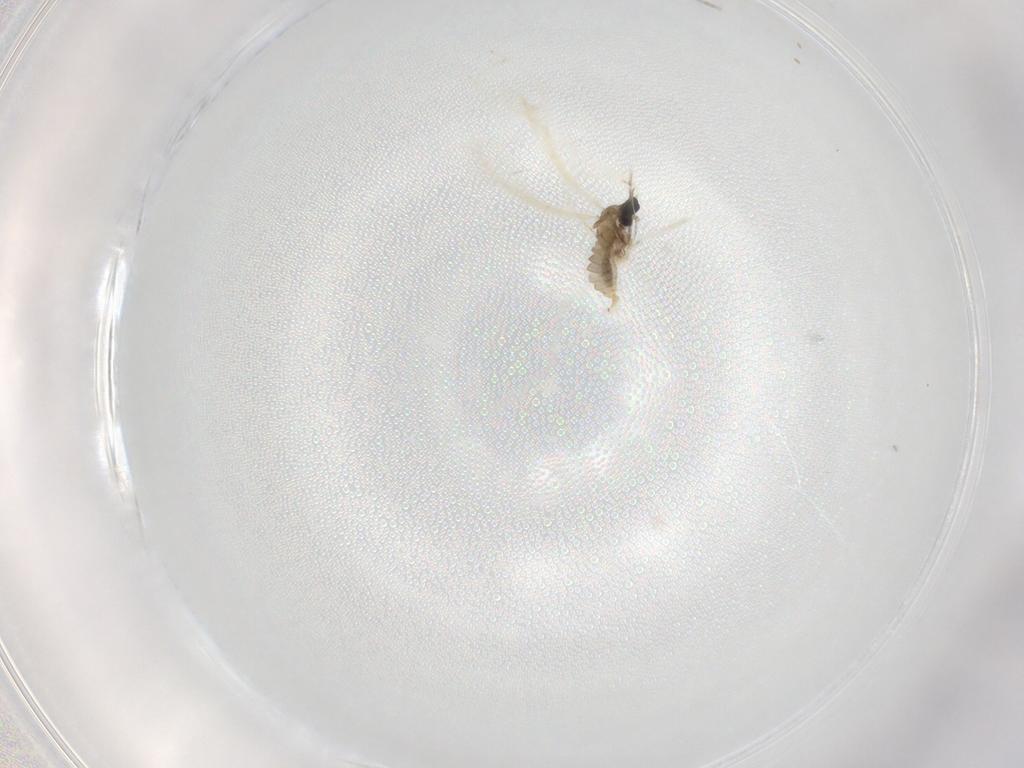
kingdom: Animalia
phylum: Arthropoda
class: Insecta
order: Diptera
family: Cecidomyiidae
